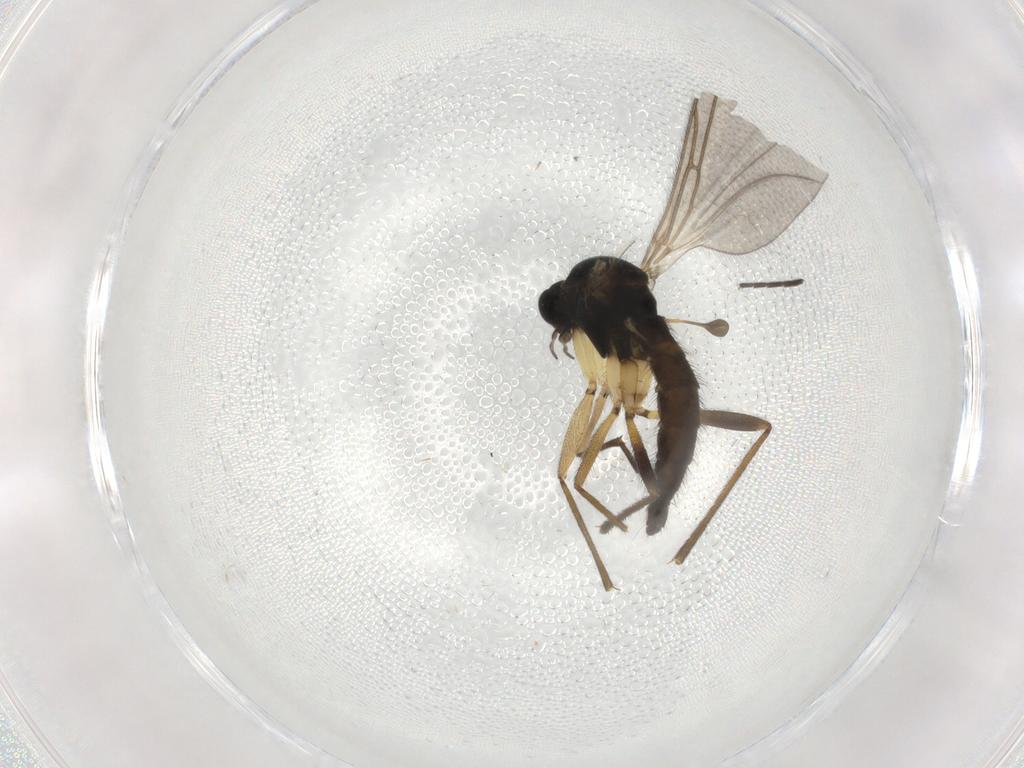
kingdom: Animalia
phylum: Arthropoda
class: Insecta
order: Diptera
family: Sciaridae
